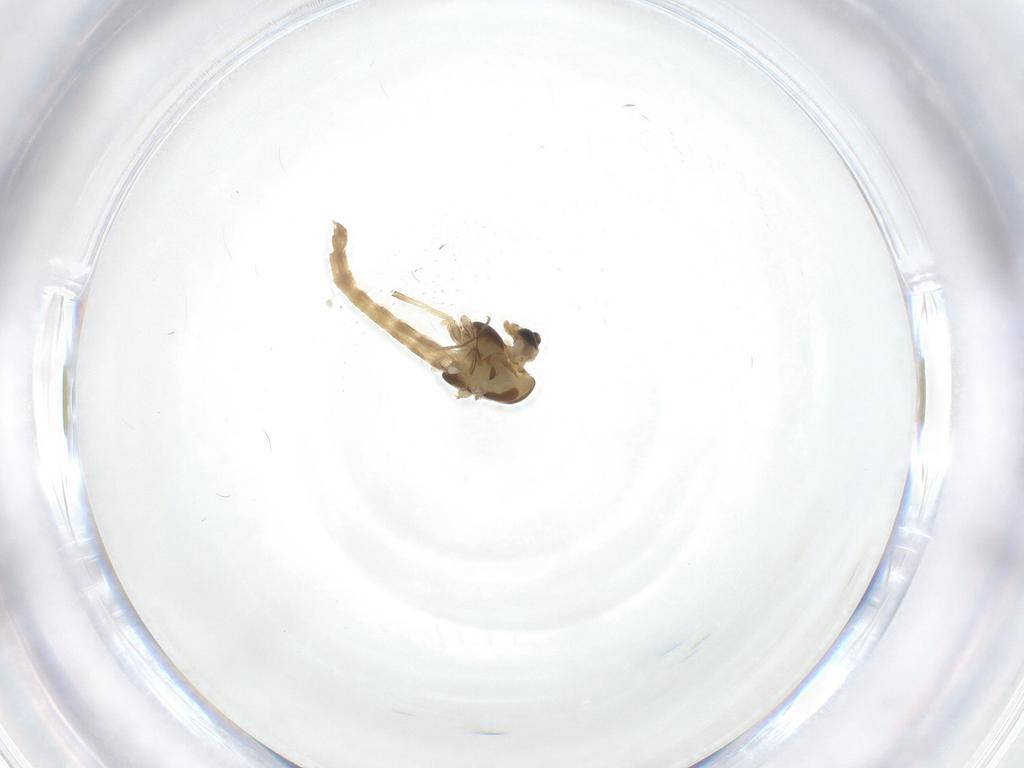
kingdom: Animalia
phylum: Arthropoda
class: Insecta
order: Diptera
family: Chironomidae
